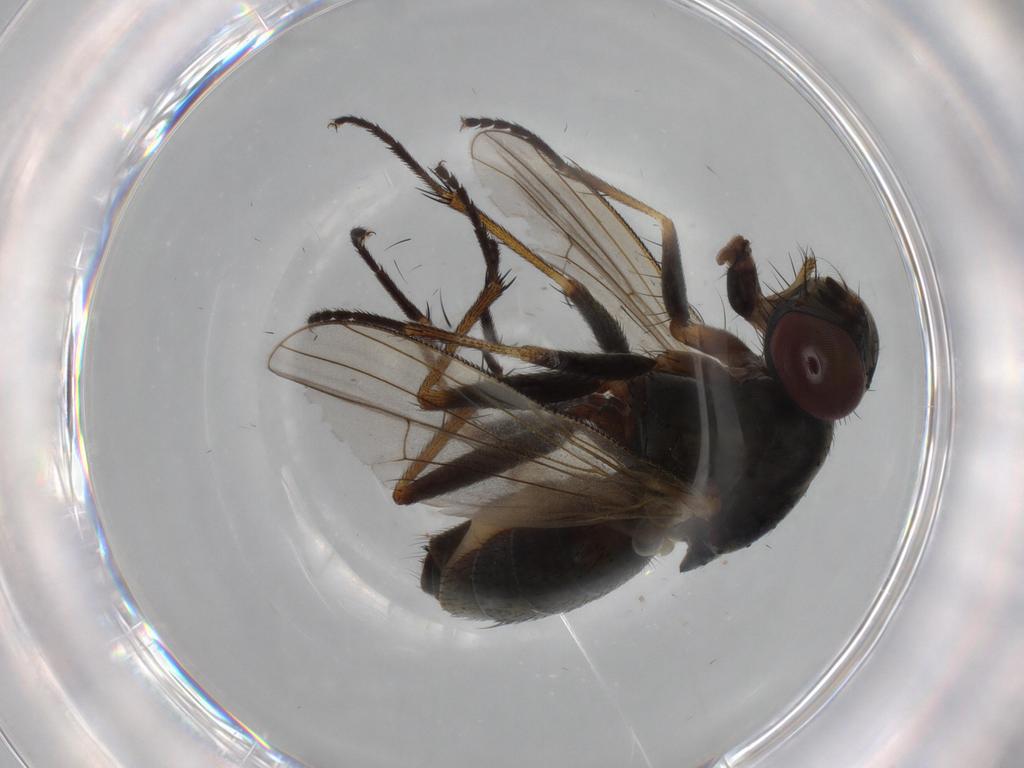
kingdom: Animalia
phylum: Arthropoda
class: Insecta
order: Diptera
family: Muscidae
